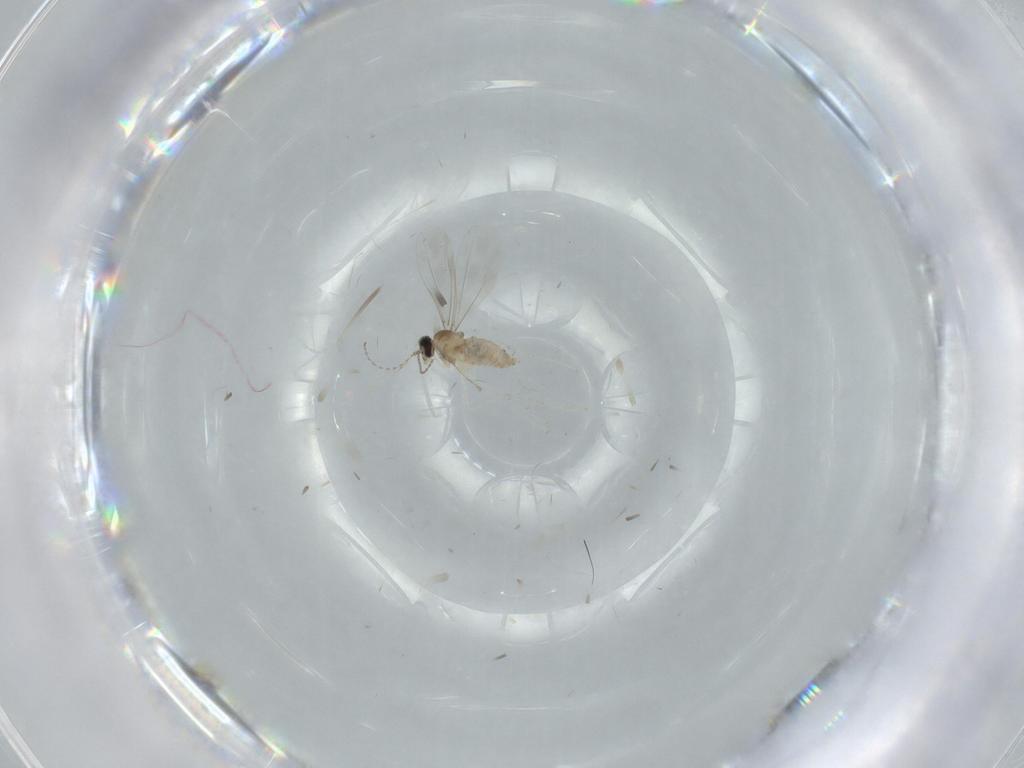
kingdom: Animalia
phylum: Arthropoda
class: Insecta
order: Diptera
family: Cecidomyiidae
